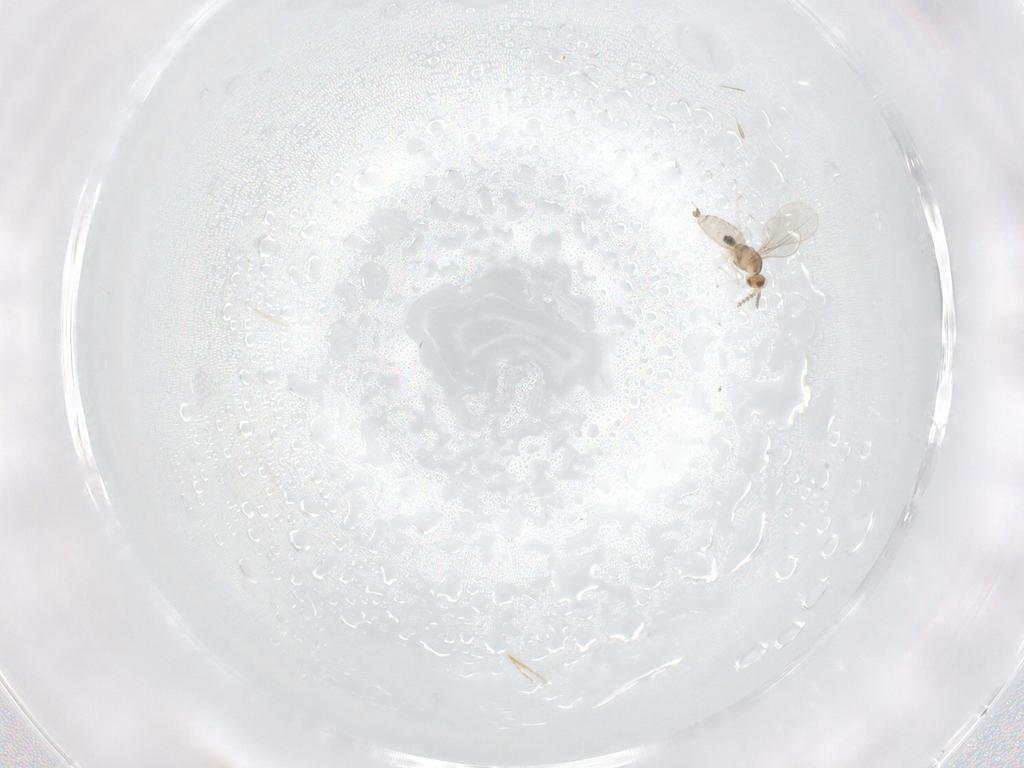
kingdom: Animalia
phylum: Arthropoda
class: Insecta
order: Diptera
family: Cecidomyiidae
